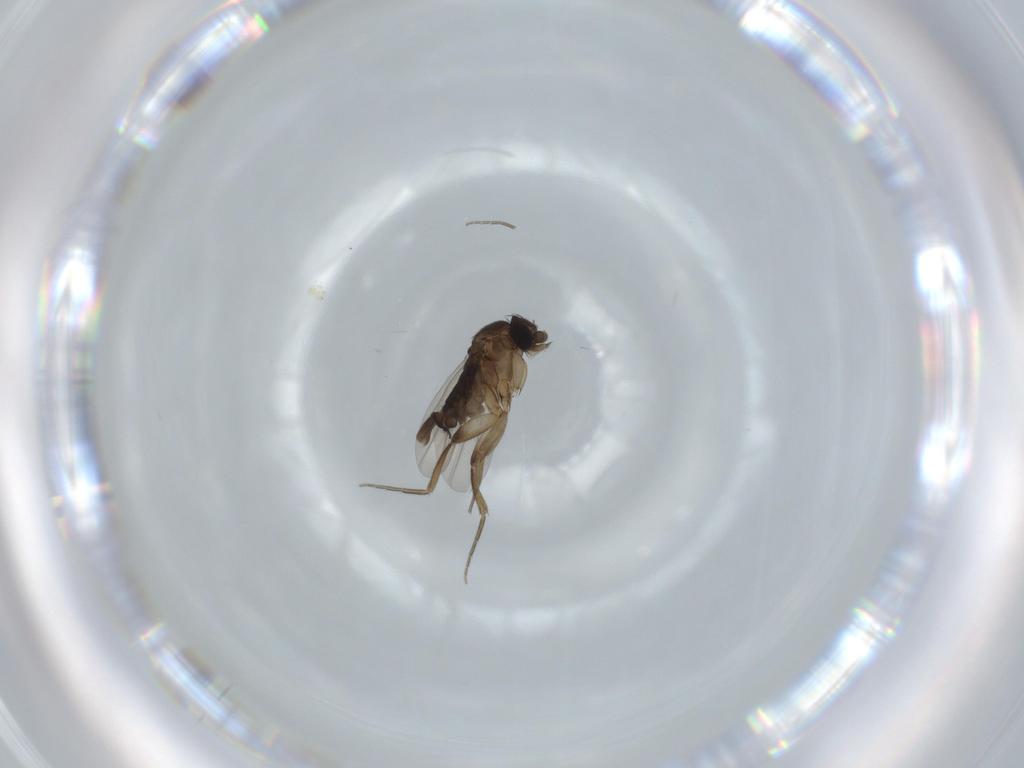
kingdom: Animalia
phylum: Arthropoda
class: Insecta
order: Diptera
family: Phoridae
